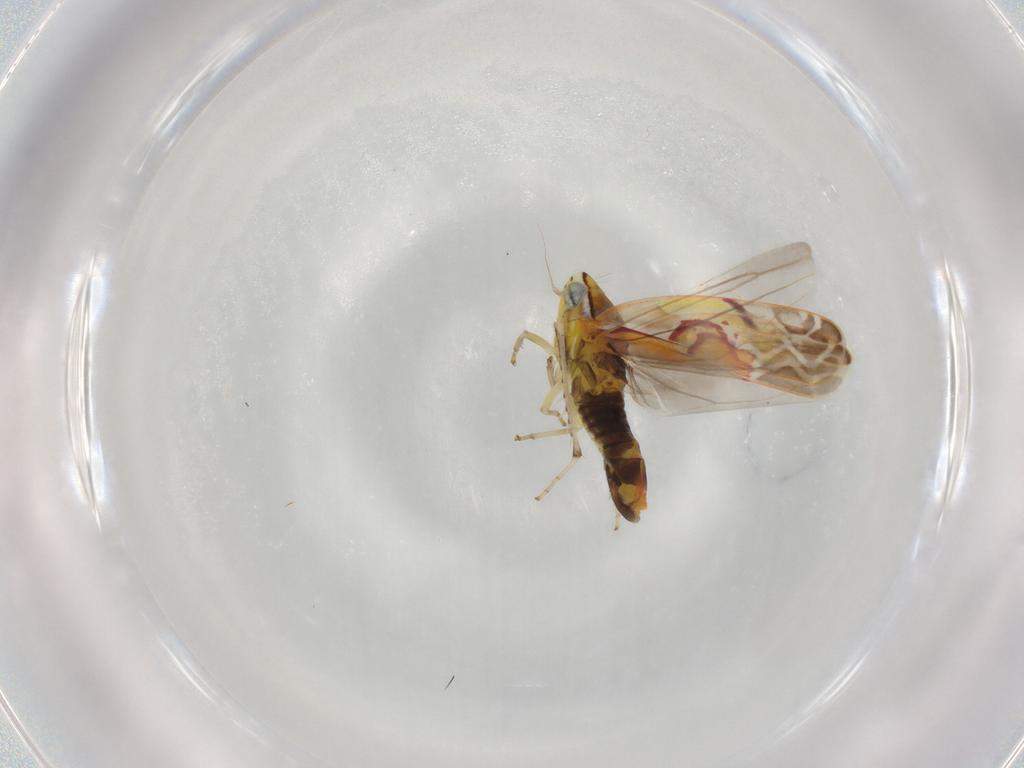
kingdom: Animalia
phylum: Arthropoda
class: Insecta
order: Hemiptera
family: Cicadellidae
